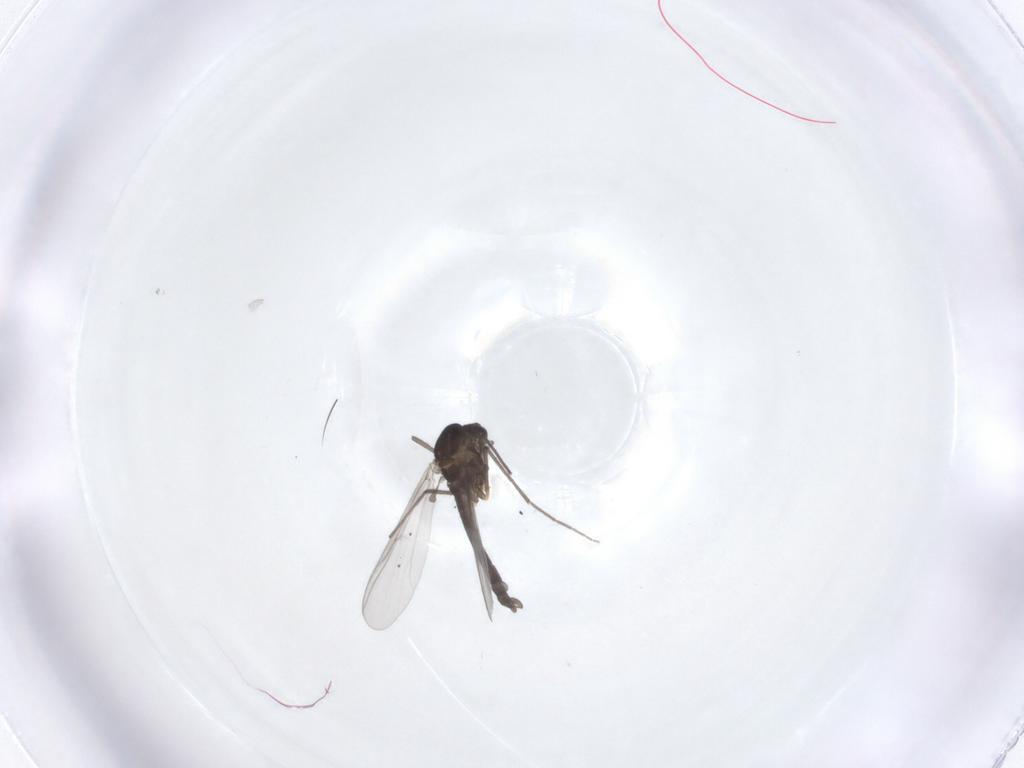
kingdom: Animalia
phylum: Arthropoda
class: Insecta
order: Diptera
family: Chironomidae
